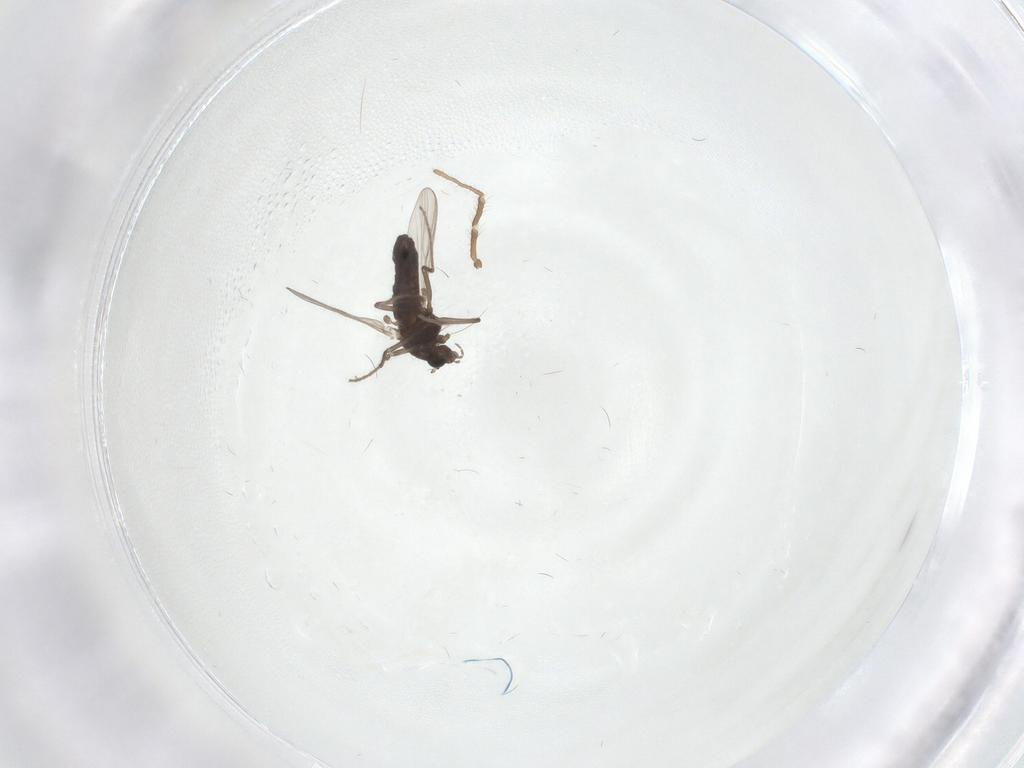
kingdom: Animalia
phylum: Arthropoda
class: Insecta
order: Diptera
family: Chironomidae
